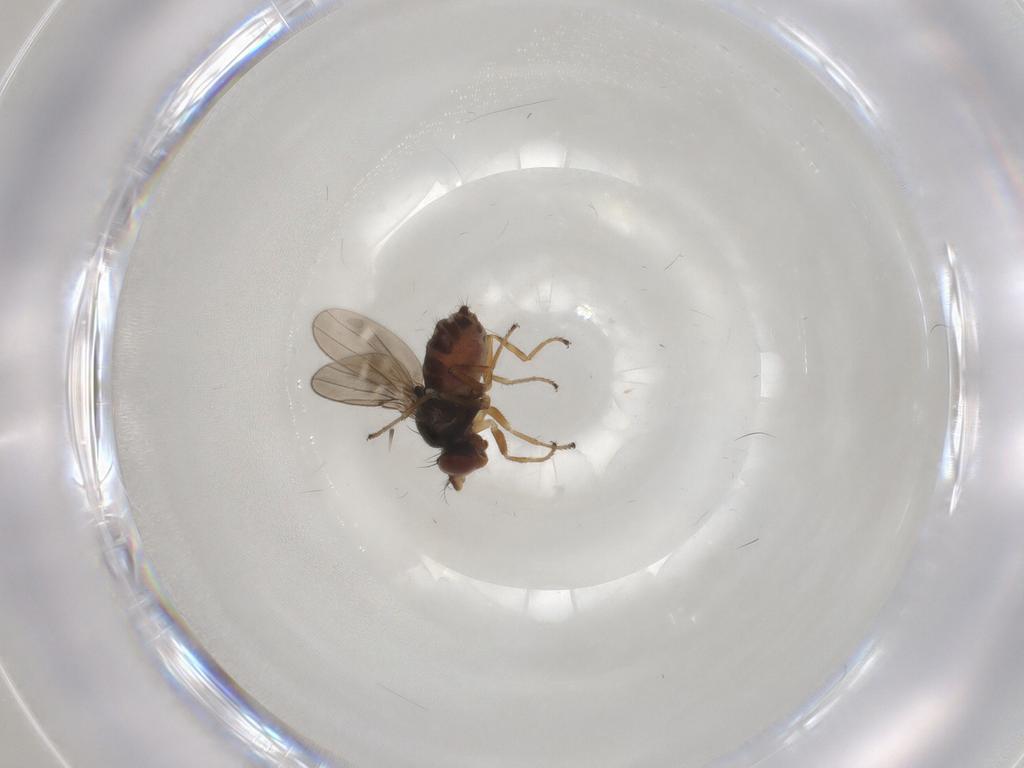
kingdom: Animalia
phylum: Arthropoda
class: Insecta
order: Diptera
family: Ephydridae
